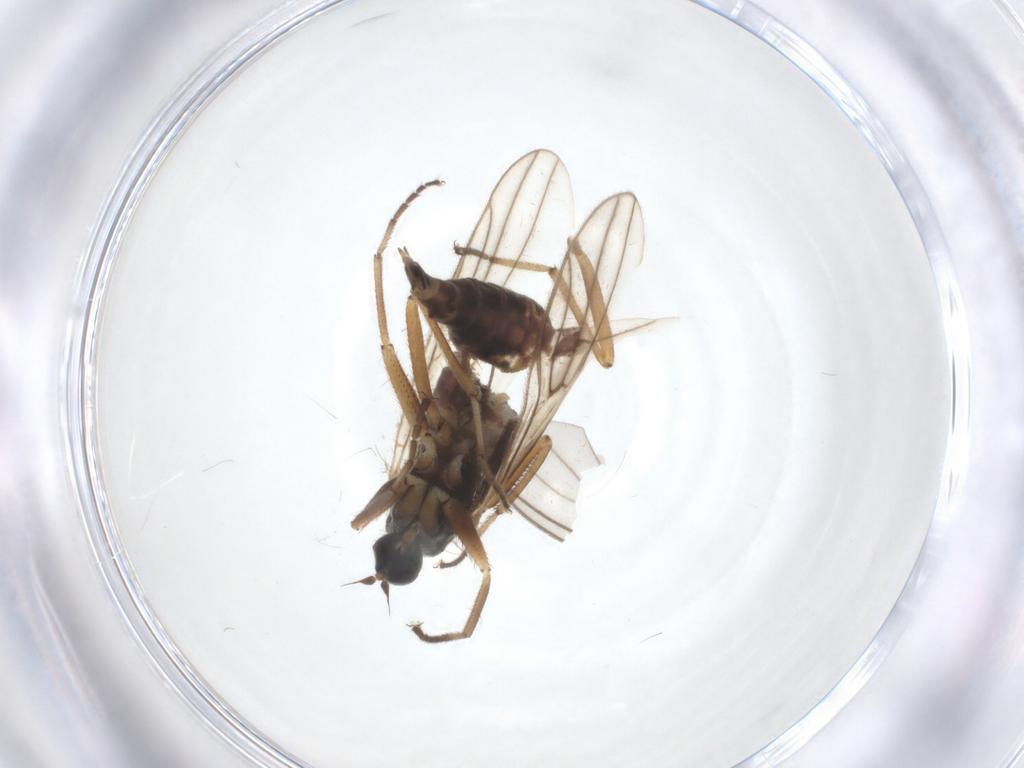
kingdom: Animalia
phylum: Arthropoda
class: Insecta
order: Diptera
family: Hybotidae
